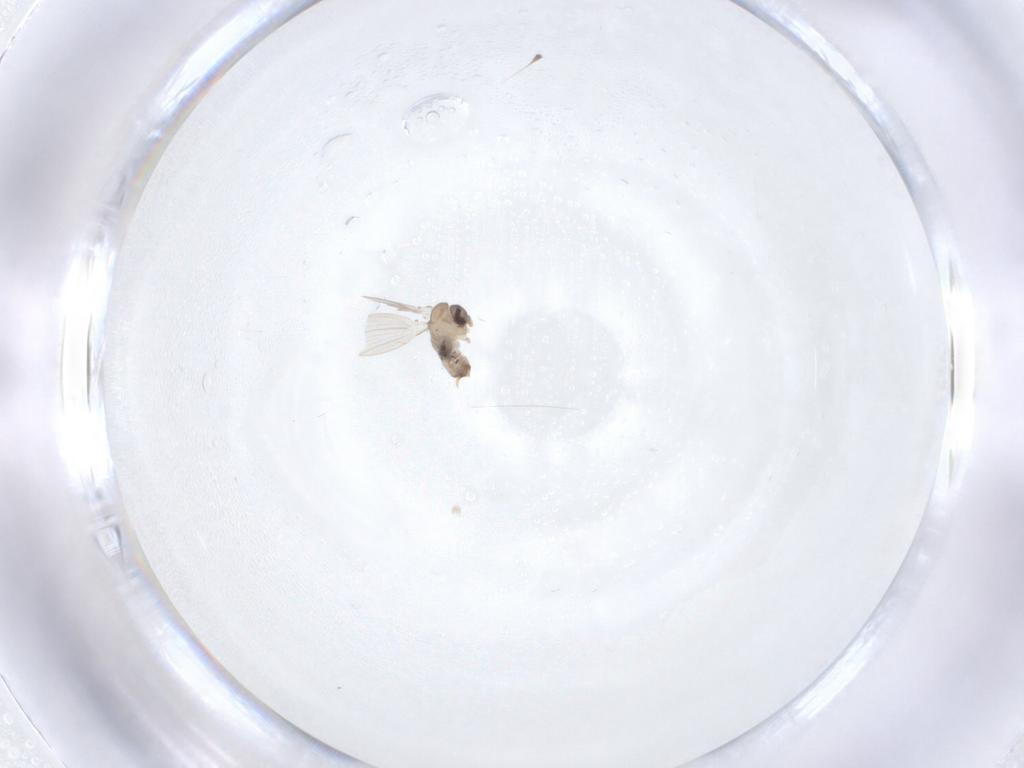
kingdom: Animalia
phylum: Arthropoda
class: Insecta
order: Diptera
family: Psychodidae
